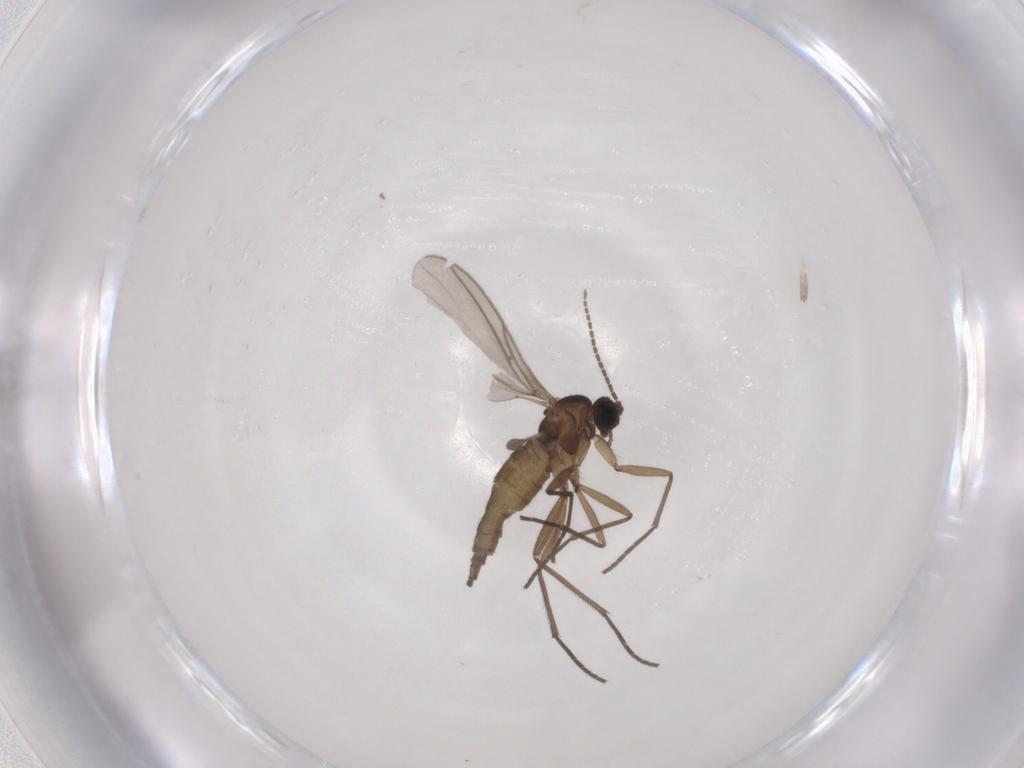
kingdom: Animalia
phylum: Arthropoda
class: Insecta
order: Diptera
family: Sciaridae
